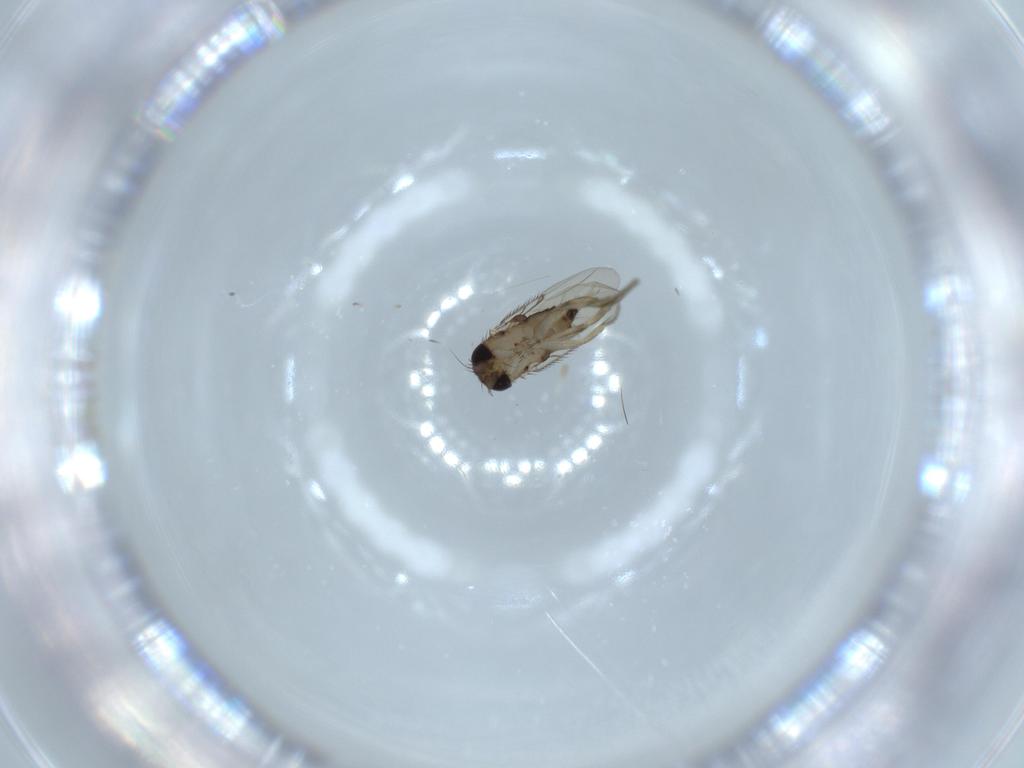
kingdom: Animalia
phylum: Arthropoda
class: Insecta
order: Diptera
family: Phoridae
